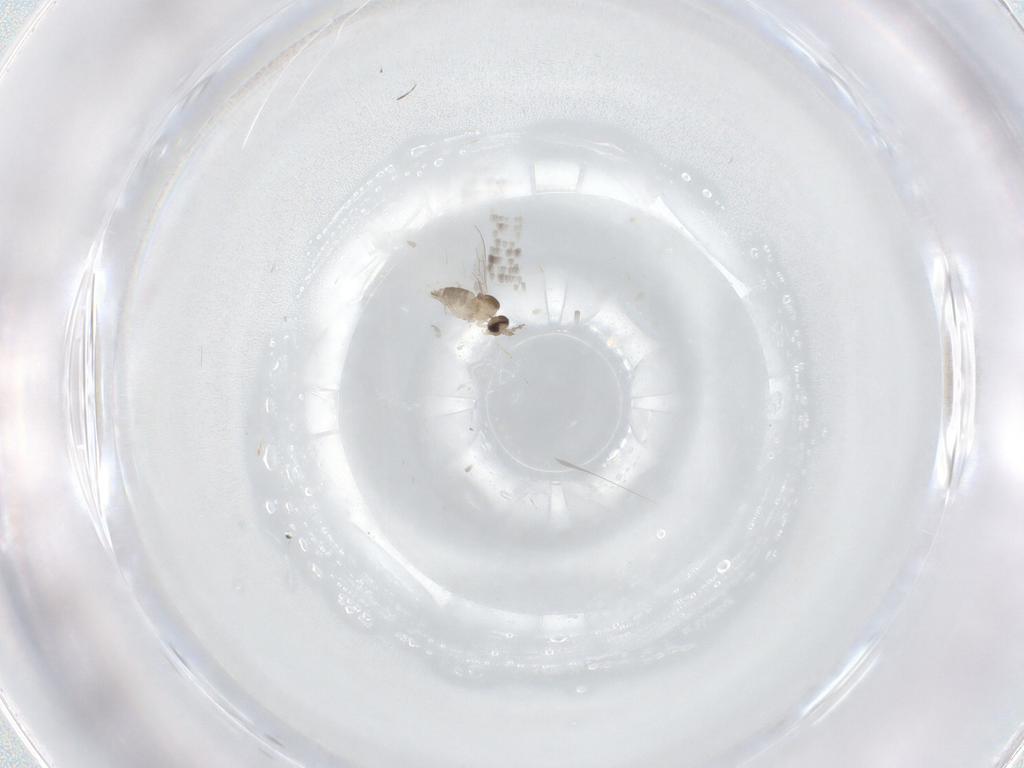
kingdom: Animalia
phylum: Arthropoda
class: Insecta
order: Diptera
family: Cecidomyiidae
